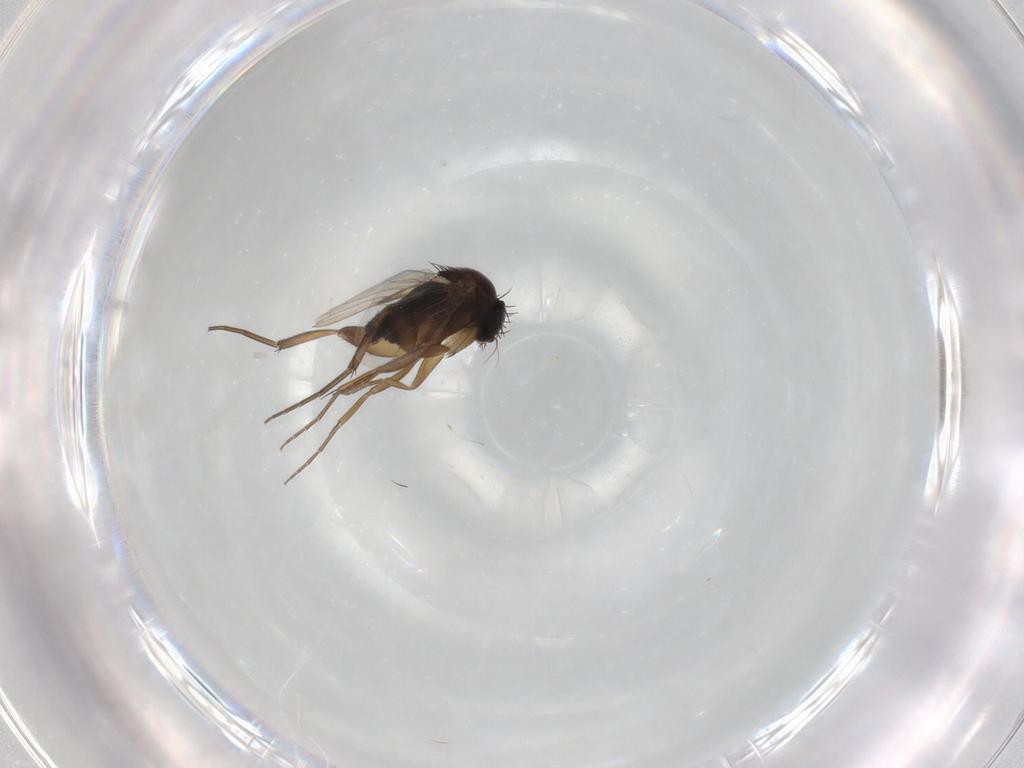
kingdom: Animalia
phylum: Arthropoda
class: Insecta
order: Diptera
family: Phoridae
